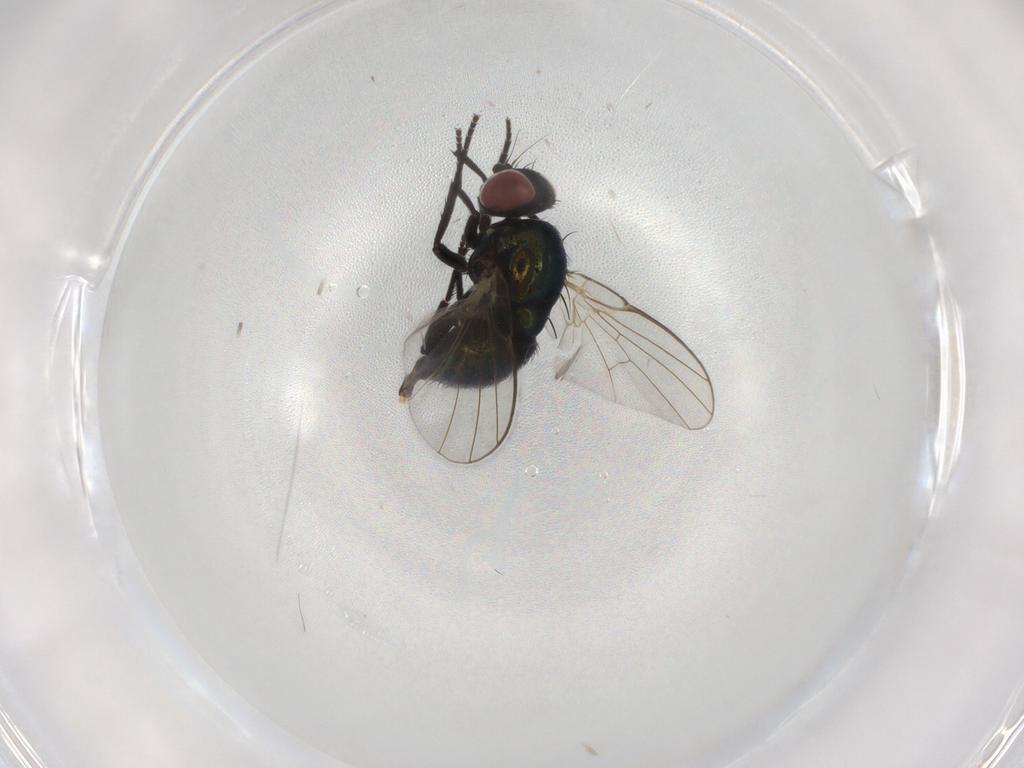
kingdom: Animalia
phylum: Arthropoda
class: Insecta
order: Diptera
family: Agromyzidae
